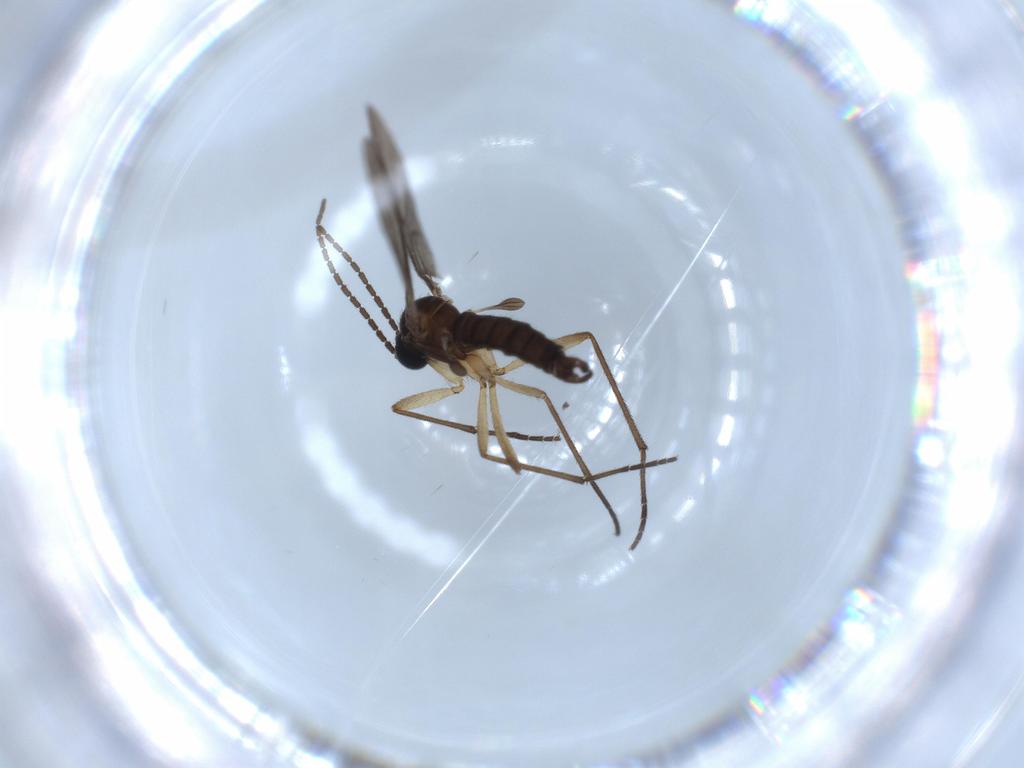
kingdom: Animalia
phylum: Arthropoda
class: Insecta
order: Diptera
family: Sciaridae
